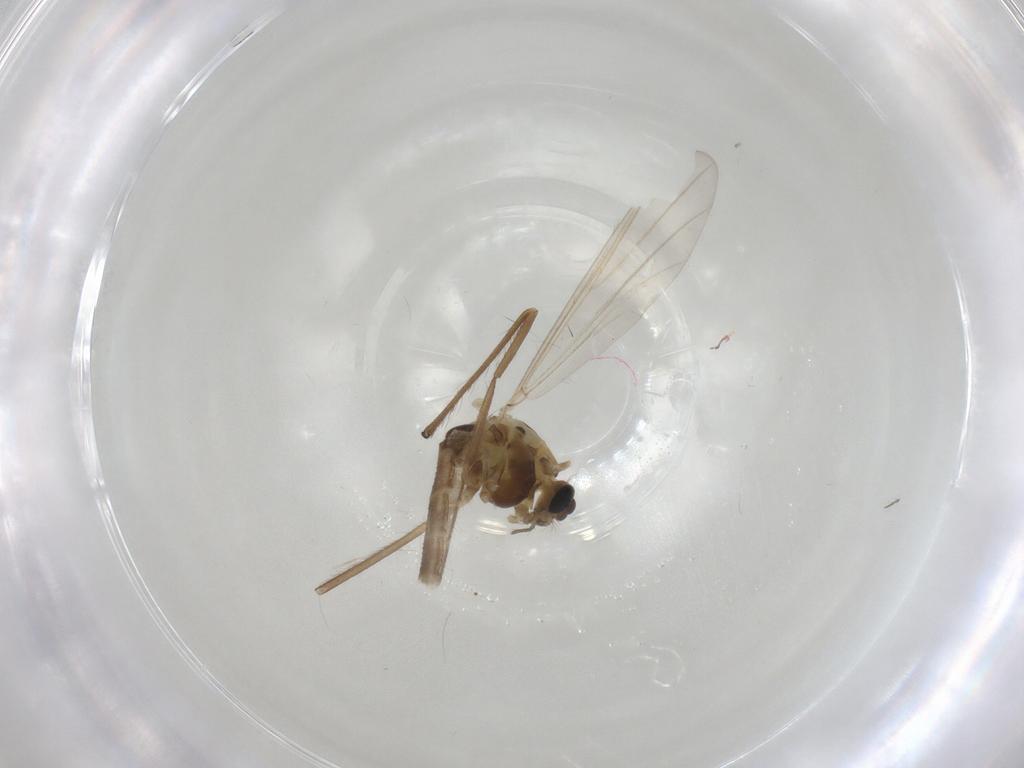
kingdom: Animalia
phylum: Arthropoda
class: Insecta
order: Diptera
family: Chironomidae
